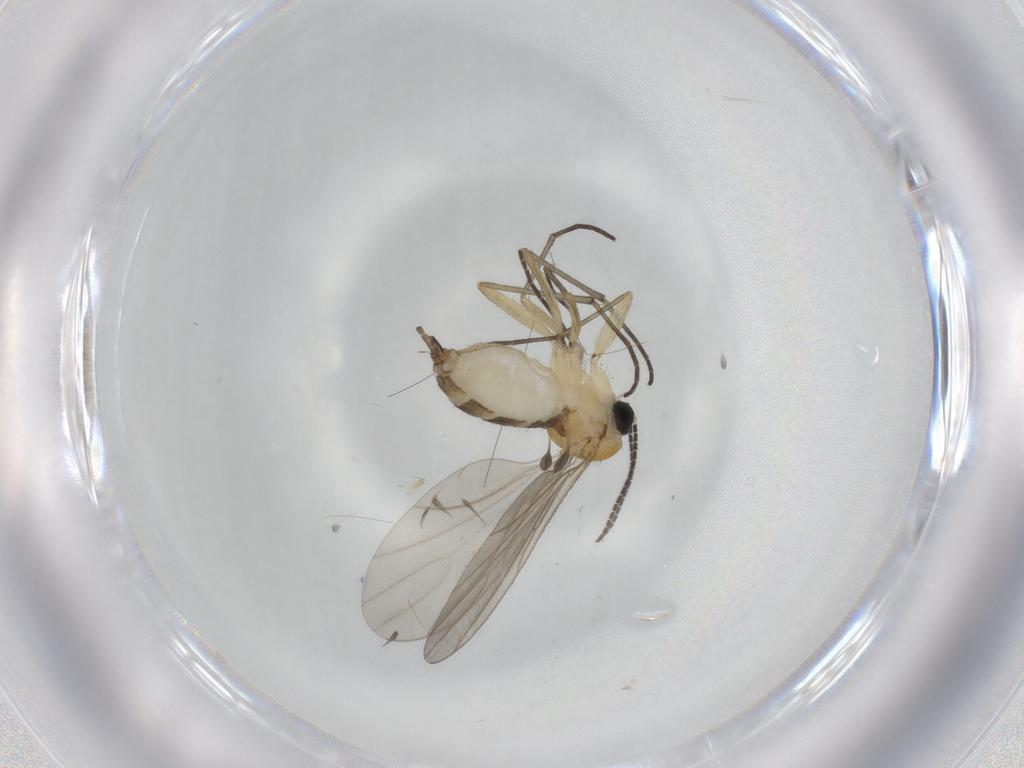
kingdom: Animalia
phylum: Arthropoda
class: Insecta
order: Diptera
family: Sciaridae
